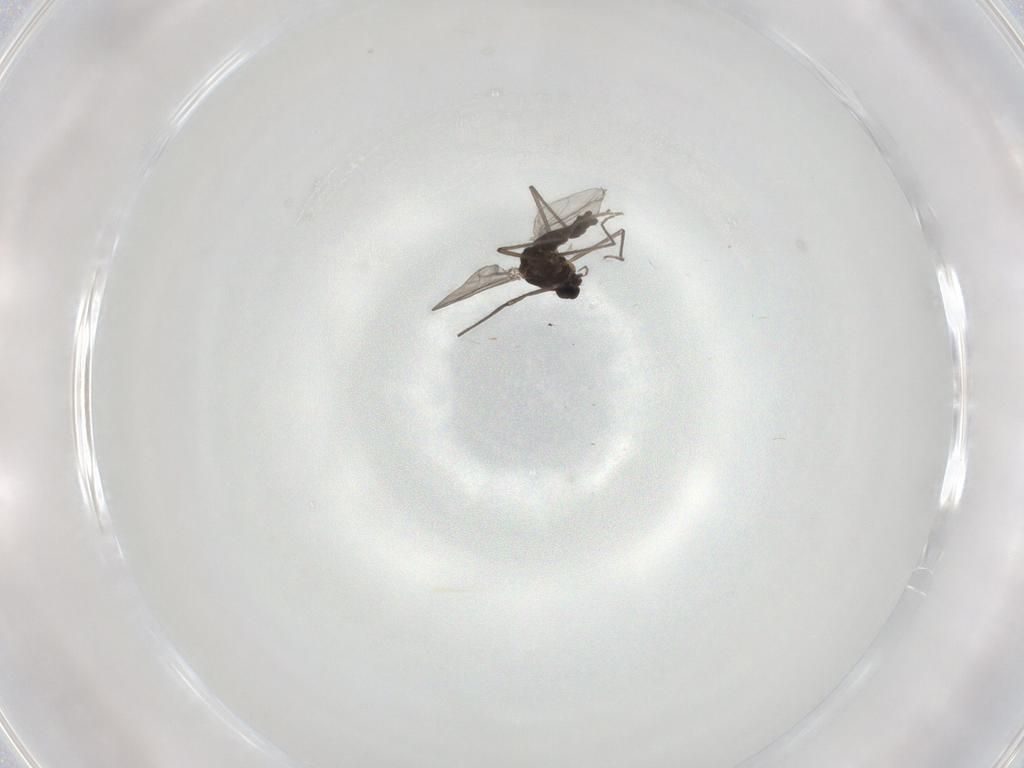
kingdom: Animalia
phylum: Arthropoda
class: Insecta
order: Diptera
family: Chironomidae
